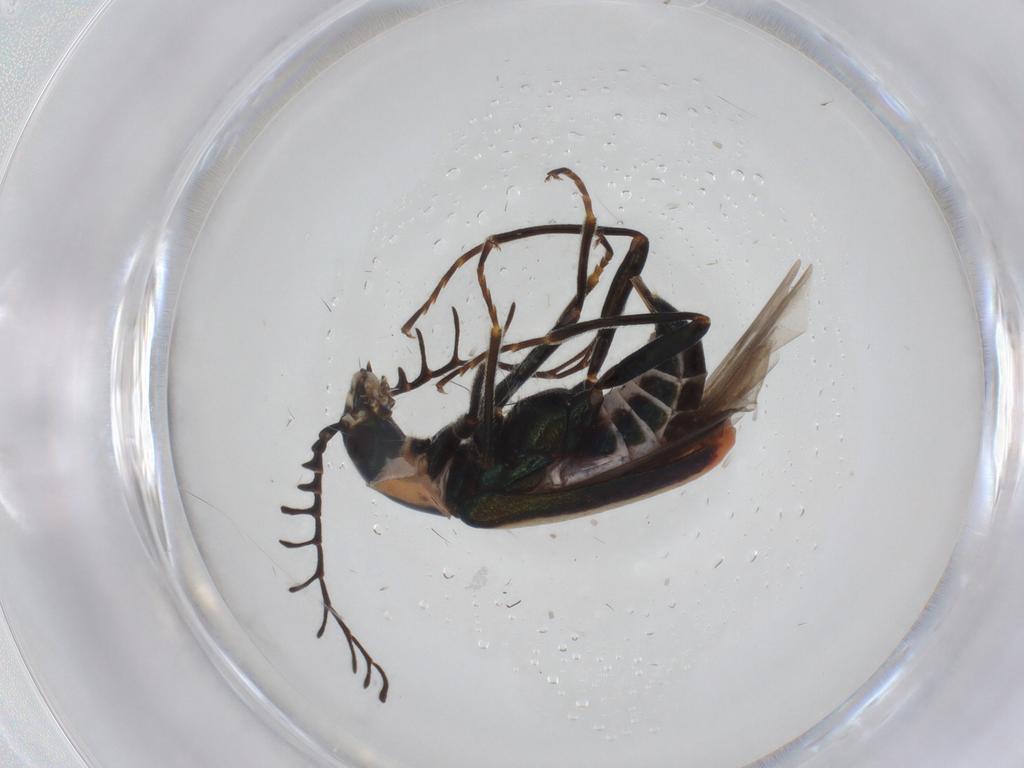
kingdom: Animalia
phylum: Arthropoda
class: Insecta
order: Coleoptera
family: Melyridae
